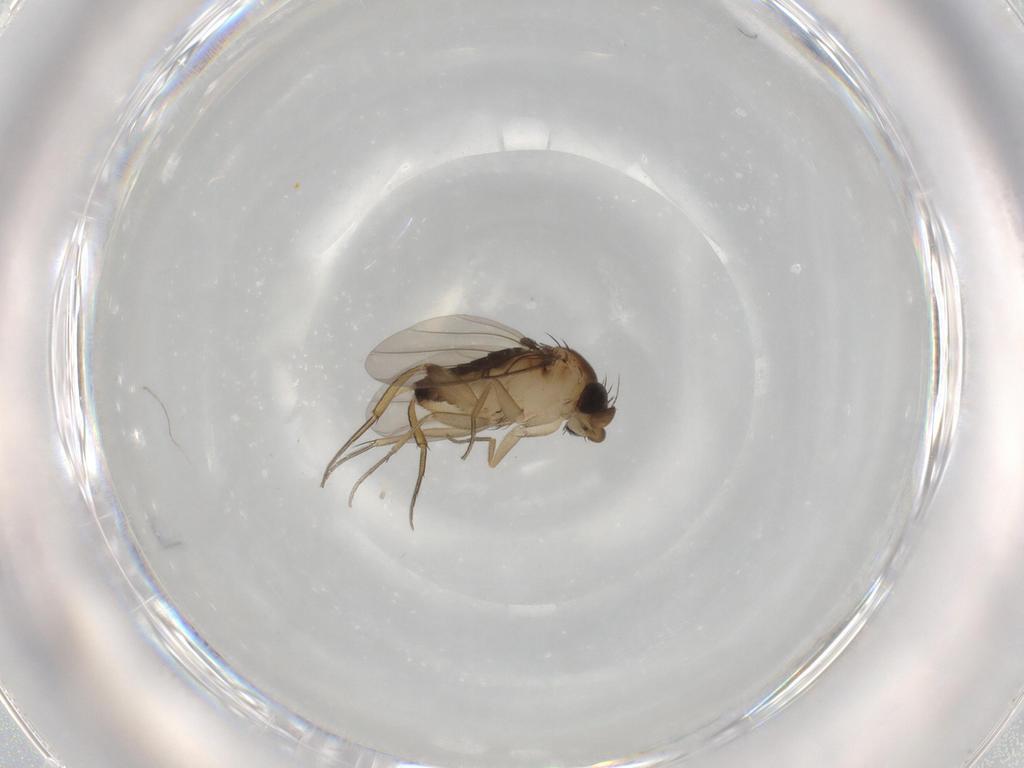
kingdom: Animalia
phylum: Arthropoda
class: Insecta
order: Diptera
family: Phoridae
